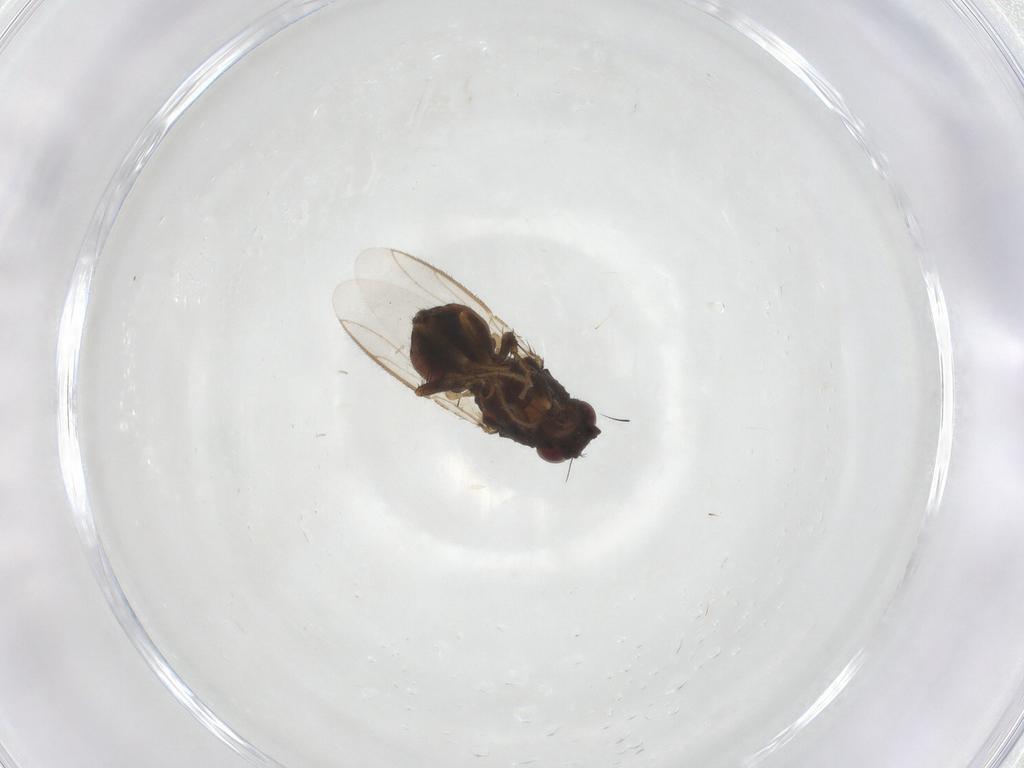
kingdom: Animalia
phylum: Arthropoda
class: Insecta
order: Diptera
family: Sphaeroceridae
